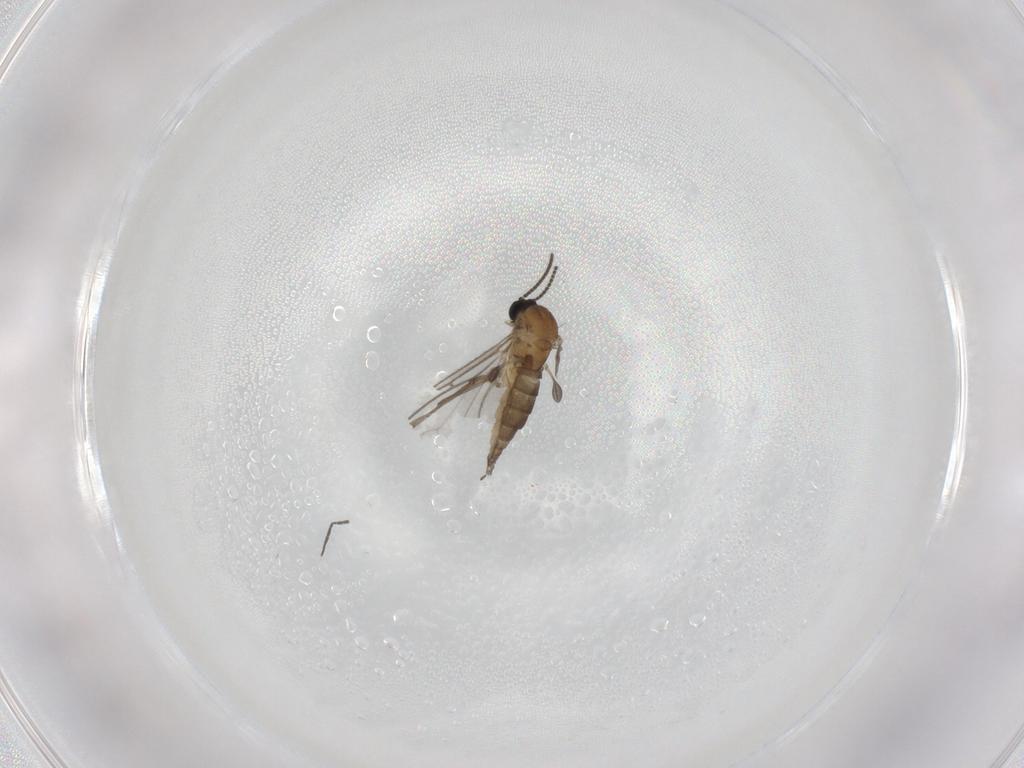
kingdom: Animalia
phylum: Arthropoda
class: Insecta
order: Diptera
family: Sciaridae
